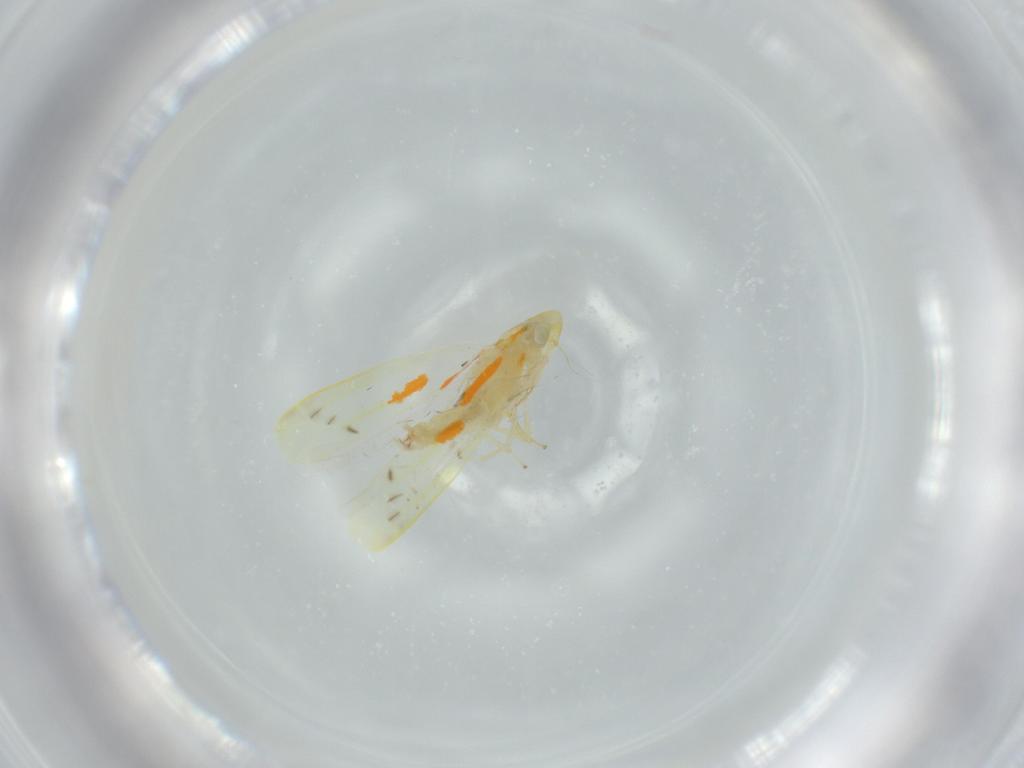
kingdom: Animalia
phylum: Arthropoda
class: Insecta
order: Hemiptera
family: Cicadellidae
